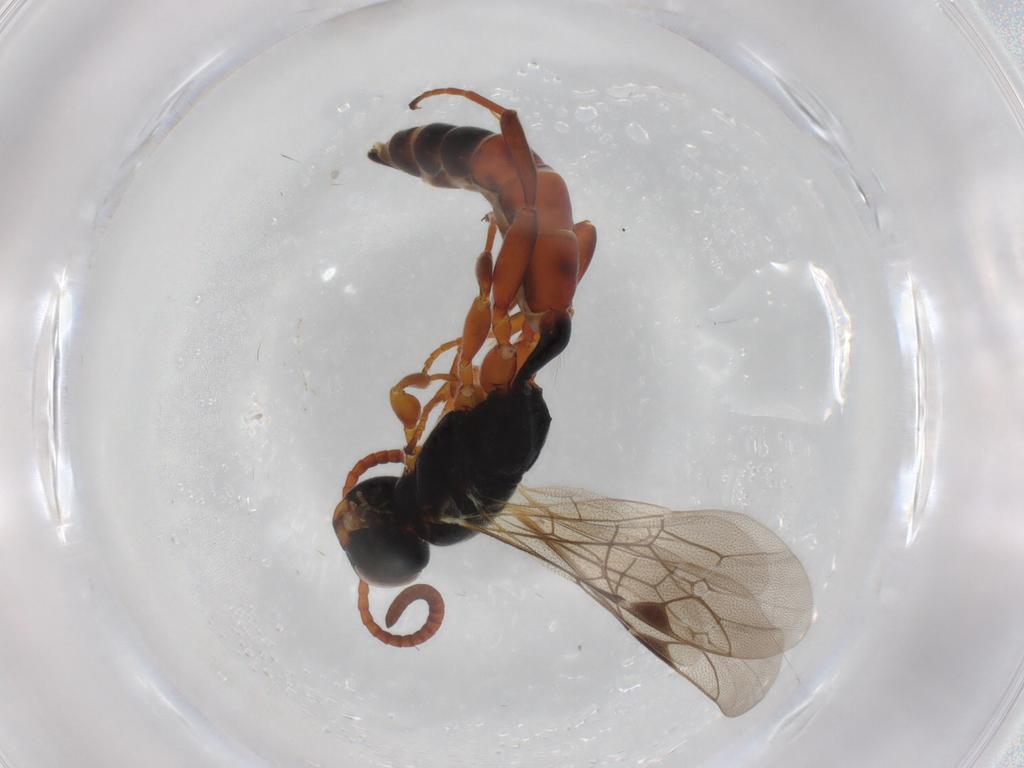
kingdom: Animalia
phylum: Arthropoda
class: Insecta
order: Hymenoptera
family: Ichneumonidae
